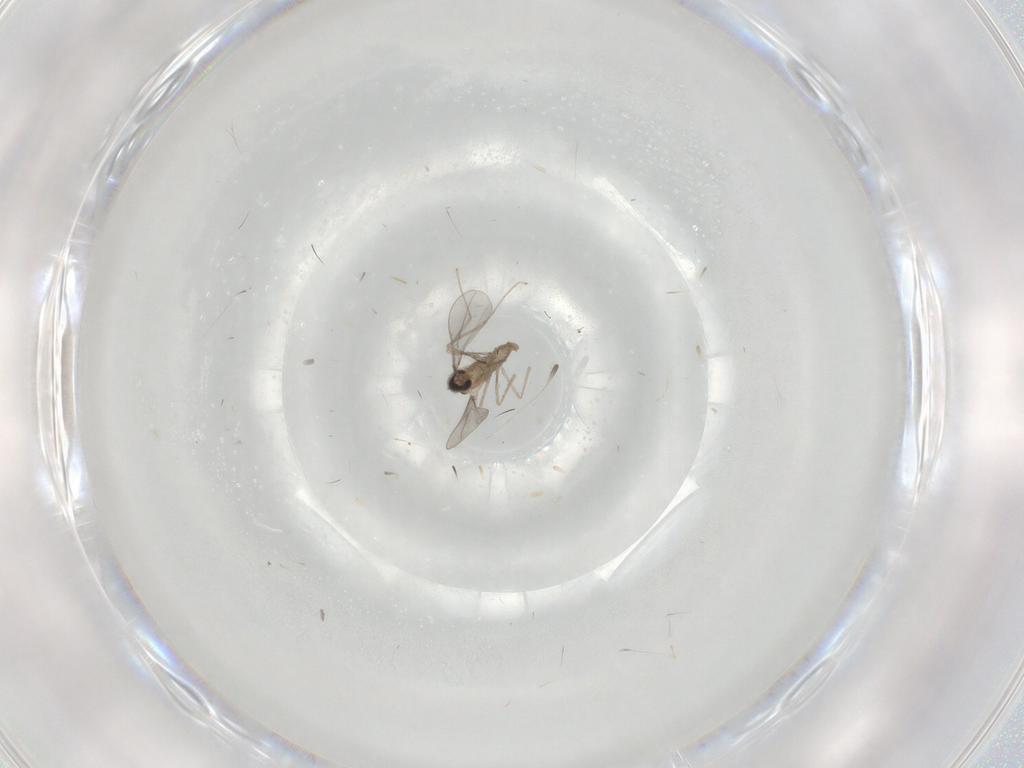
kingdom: Animalia
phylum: Arthropoda
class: Insecta
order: Diptera
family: Cecidomyiidae
